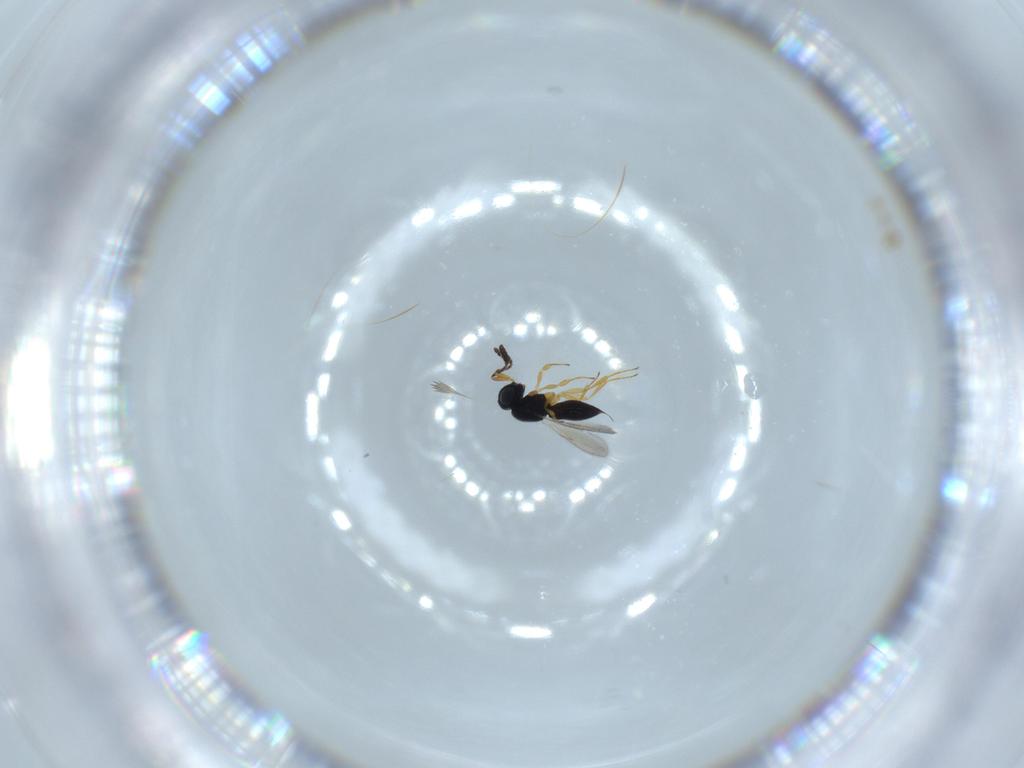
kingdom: Animalia
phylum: Arthropoda
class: Insecta
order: Hymenoptera
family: Scelionidae
